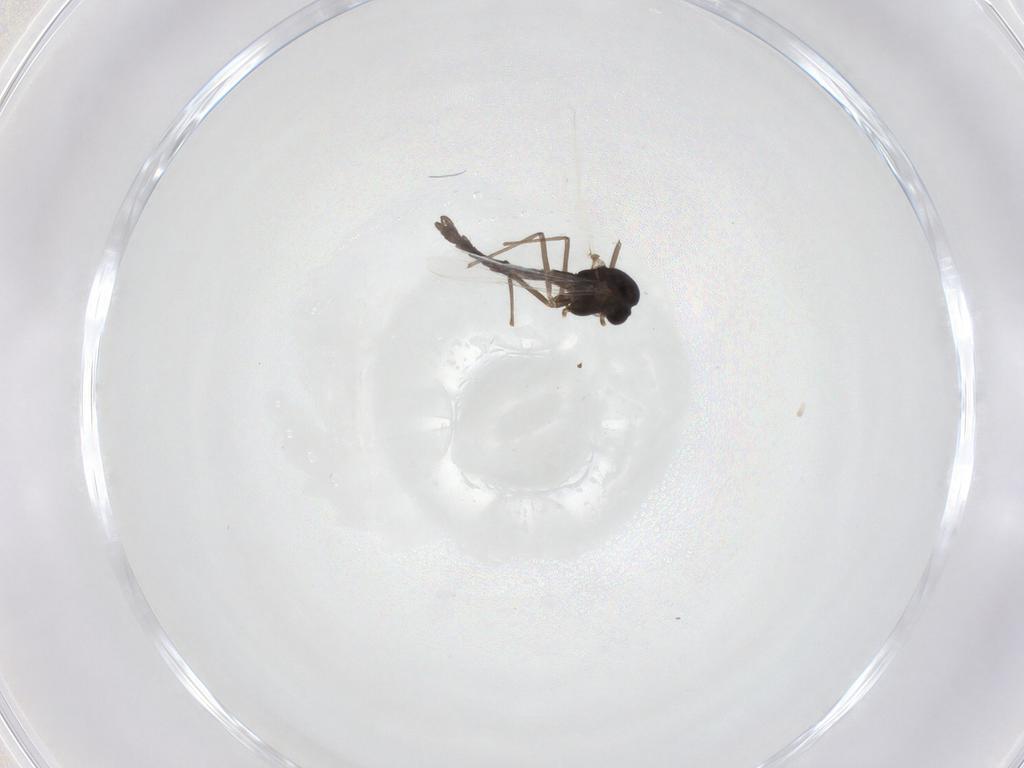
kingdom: Animalia
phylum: Arthropoda
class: Insecta
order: Diptera
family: Chironomidae
